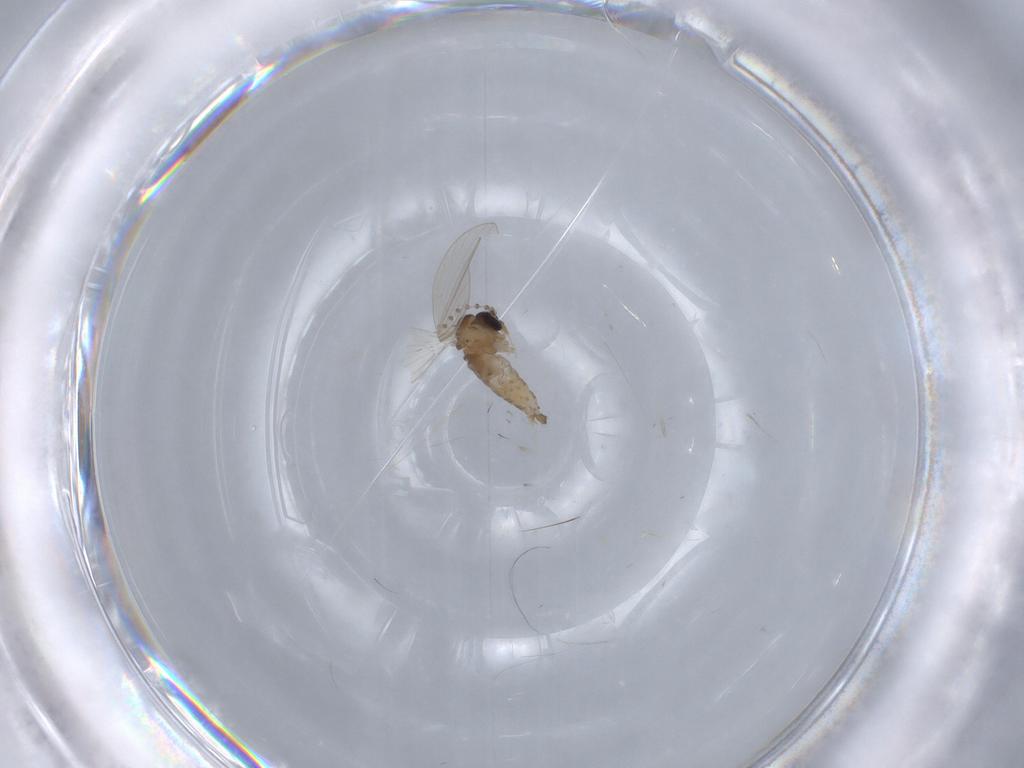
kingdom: Animalia
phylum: Arthropoda
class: Insecta
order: Diptera
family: Psychodidae
